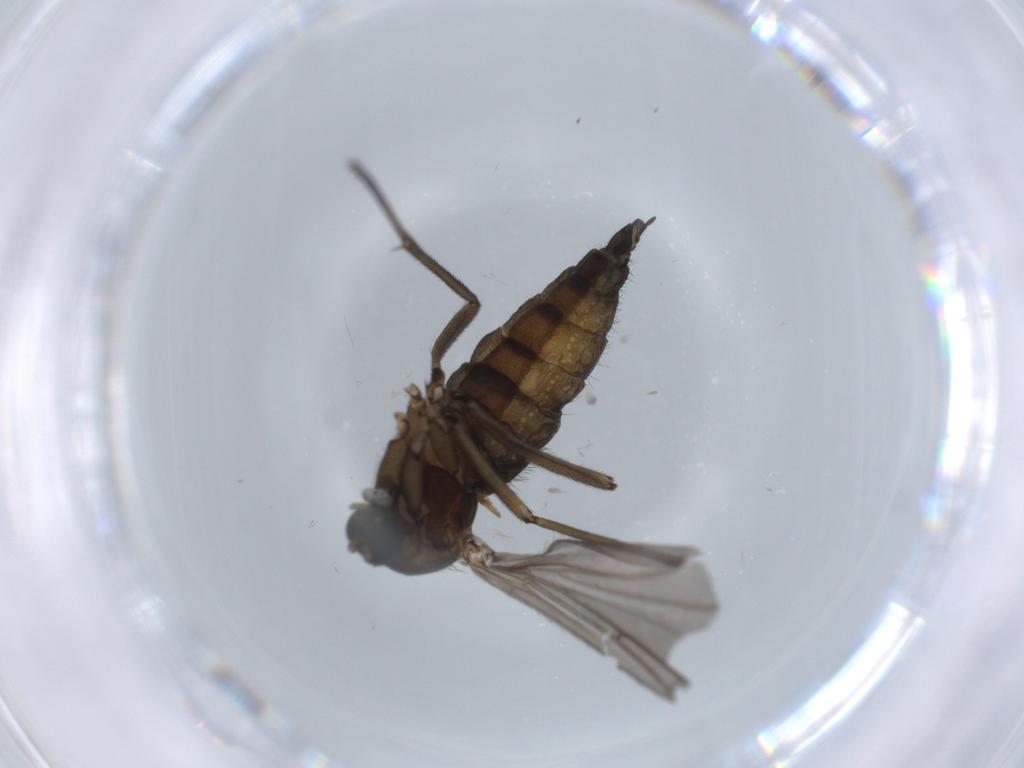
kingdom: Animalia
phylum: Arthropoda
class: Insecta
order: Diptera
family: Sciaridae
